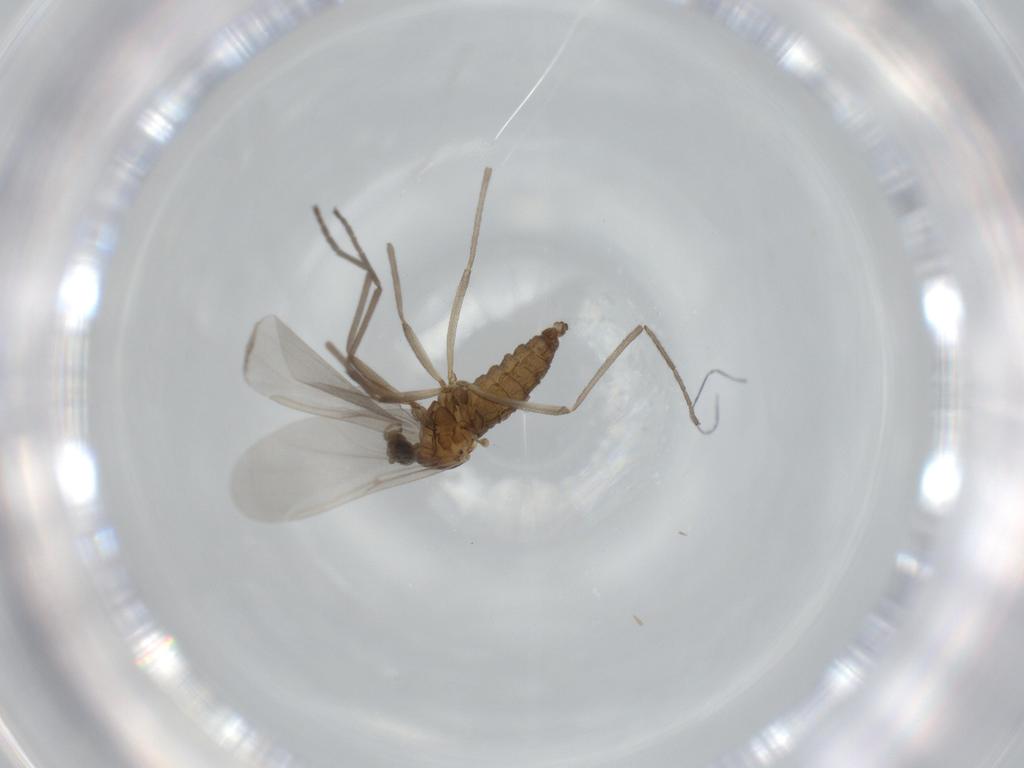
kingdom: Animalia
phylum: Arthropoda
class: Insecta
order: Diptera
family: Cecidomyiidae
